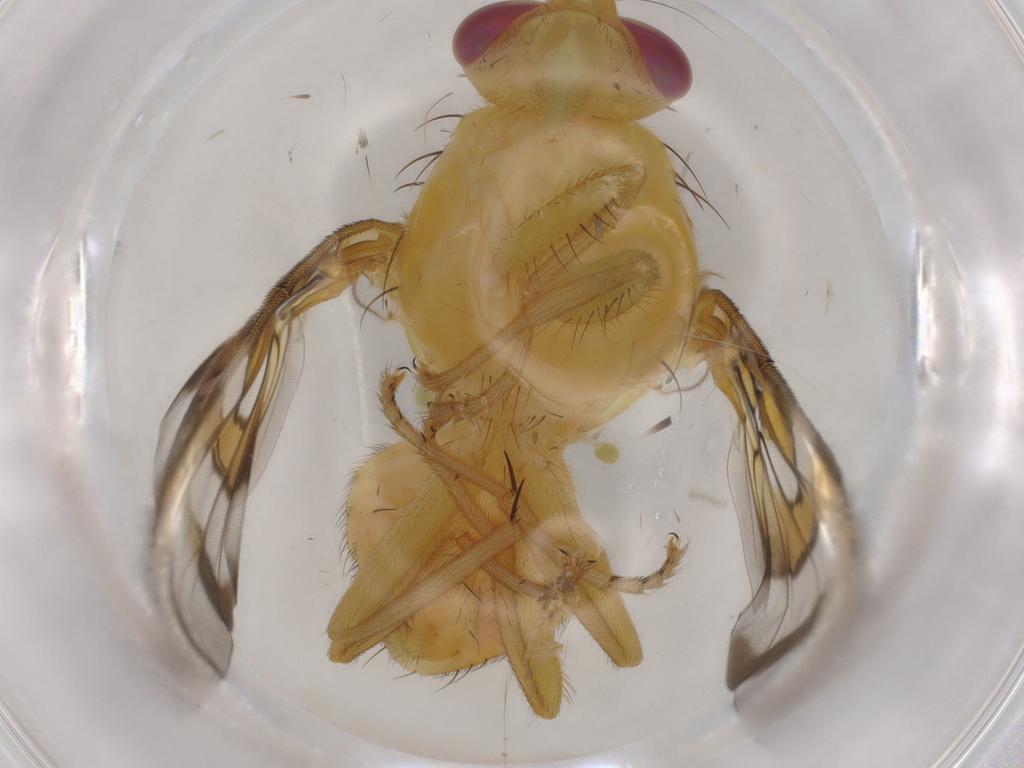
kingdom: Animalia
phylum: Arthropoda
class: Insecta
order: Diptera
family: Tephritidae
